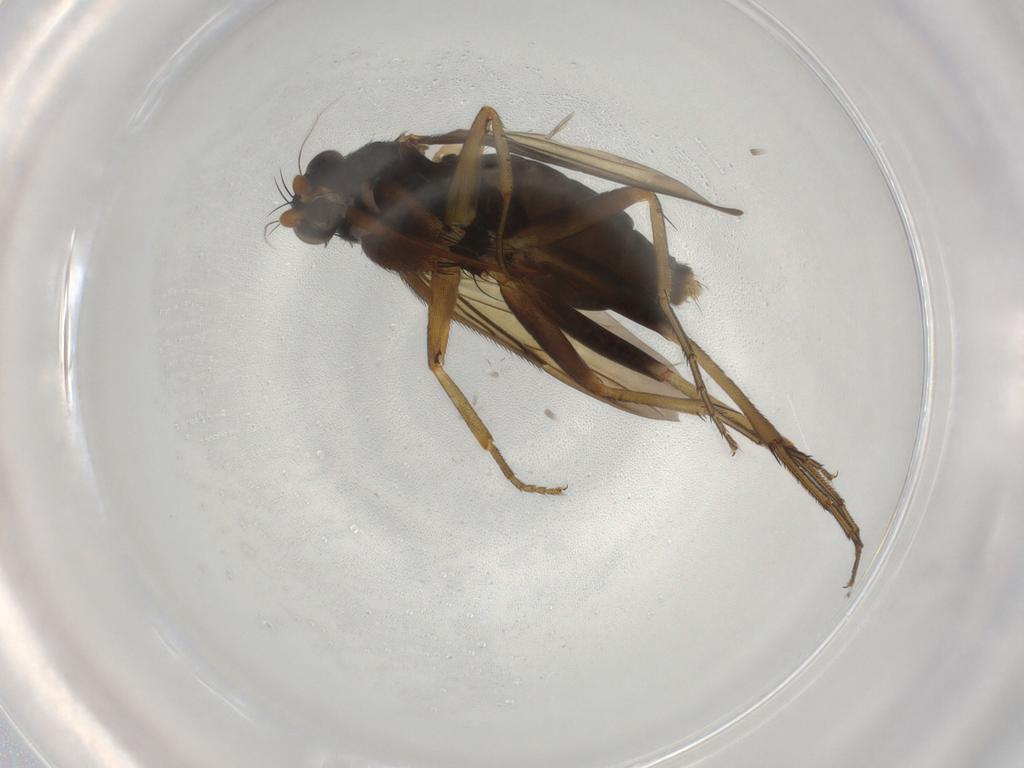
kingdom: Animalia
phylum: Arthropoda
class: Insecta
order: Diptera
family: Phoridae
